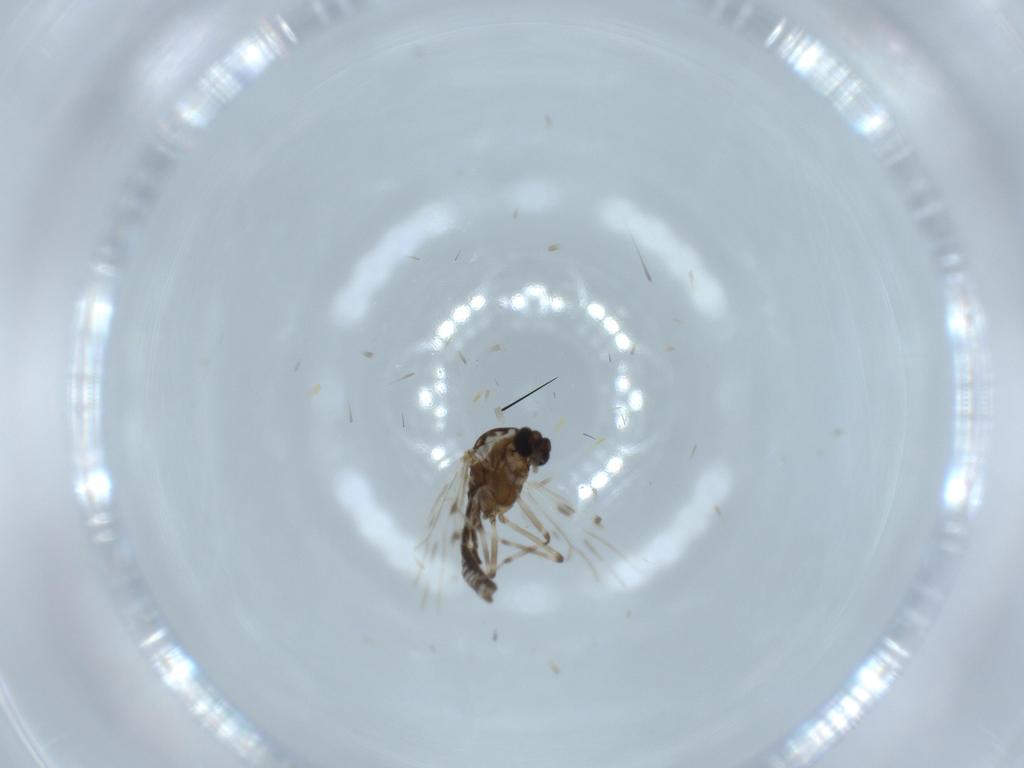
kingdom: Animalia
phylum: Arthropoda
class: Insecta
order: Diptera
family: Ceratopogonidae
